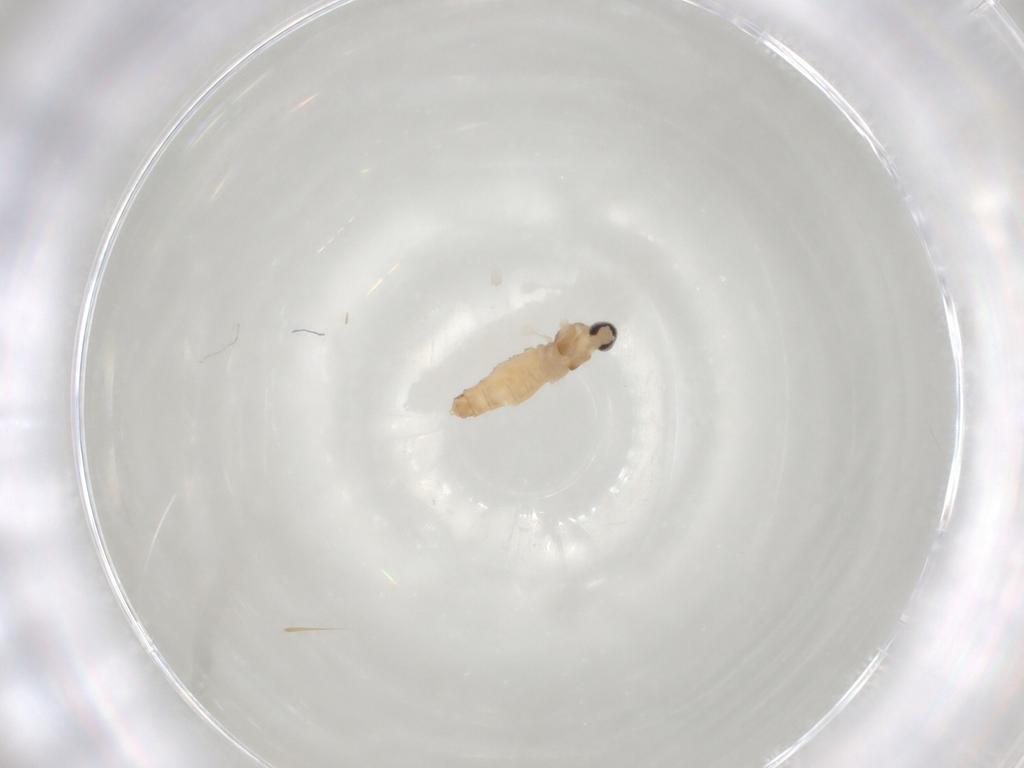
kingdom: Animalia
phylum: Arthropoda
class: Insecta
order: Diptera
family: Cecidomyiidae
